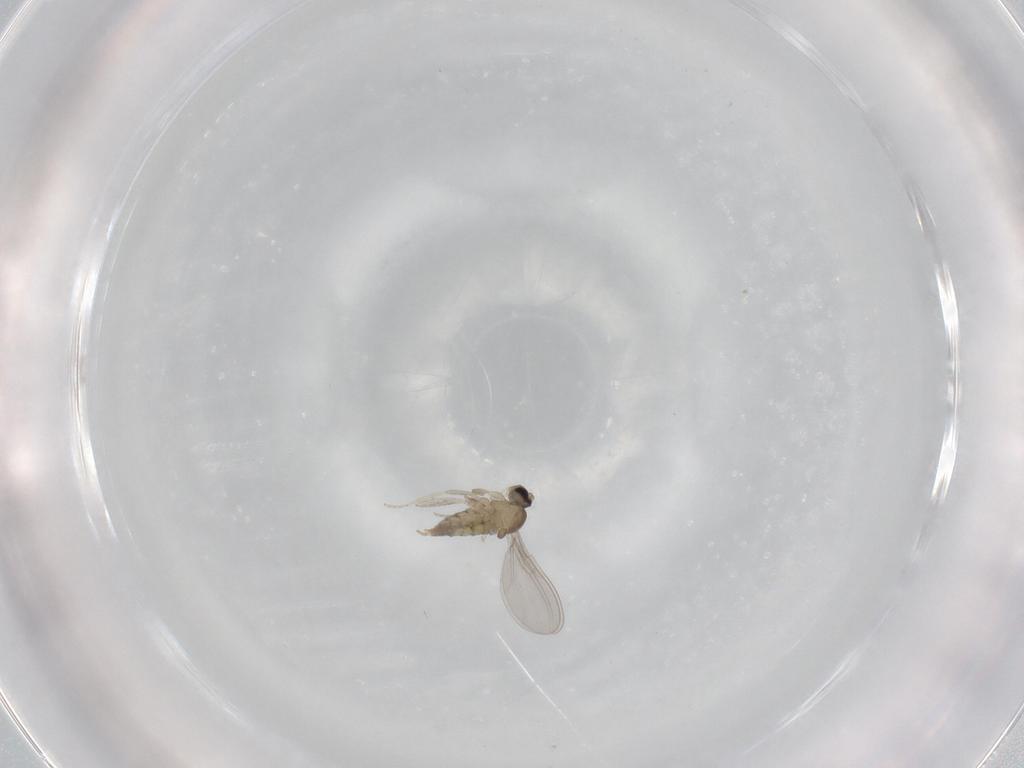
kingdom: Animalia
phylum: Arthropoda
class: Insecta
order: Diptera
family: Cecidomyiidae
